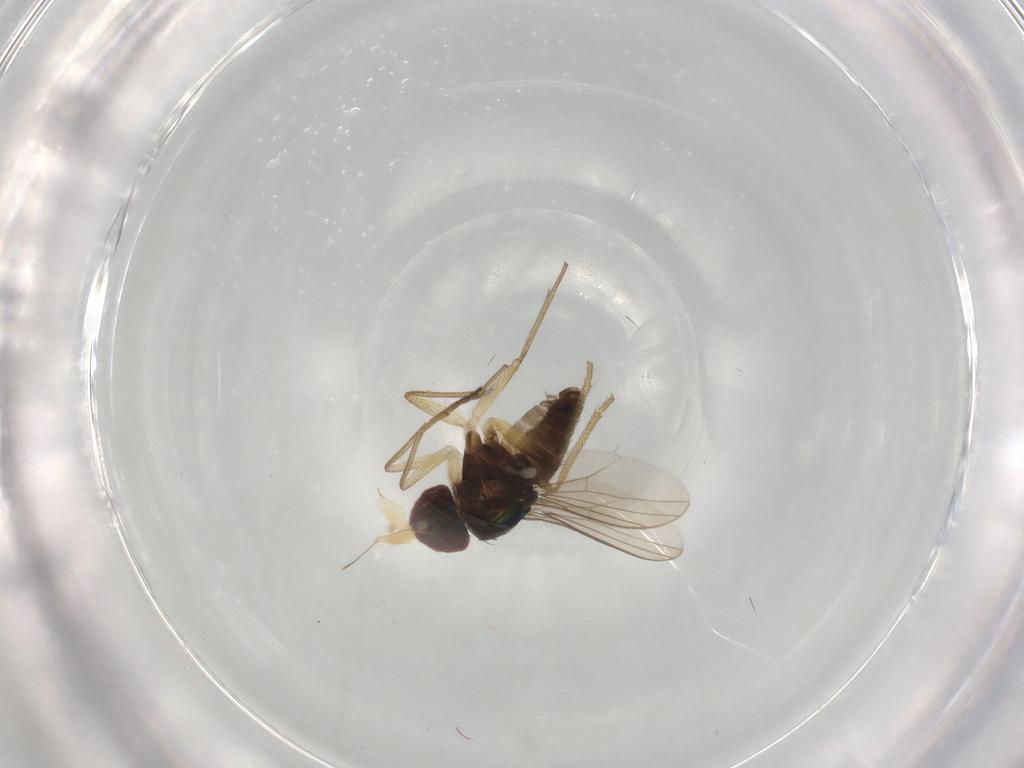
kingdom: Animalia
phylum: Arthropoda
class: Insecta
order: Diptera
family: Dolichopodidae
